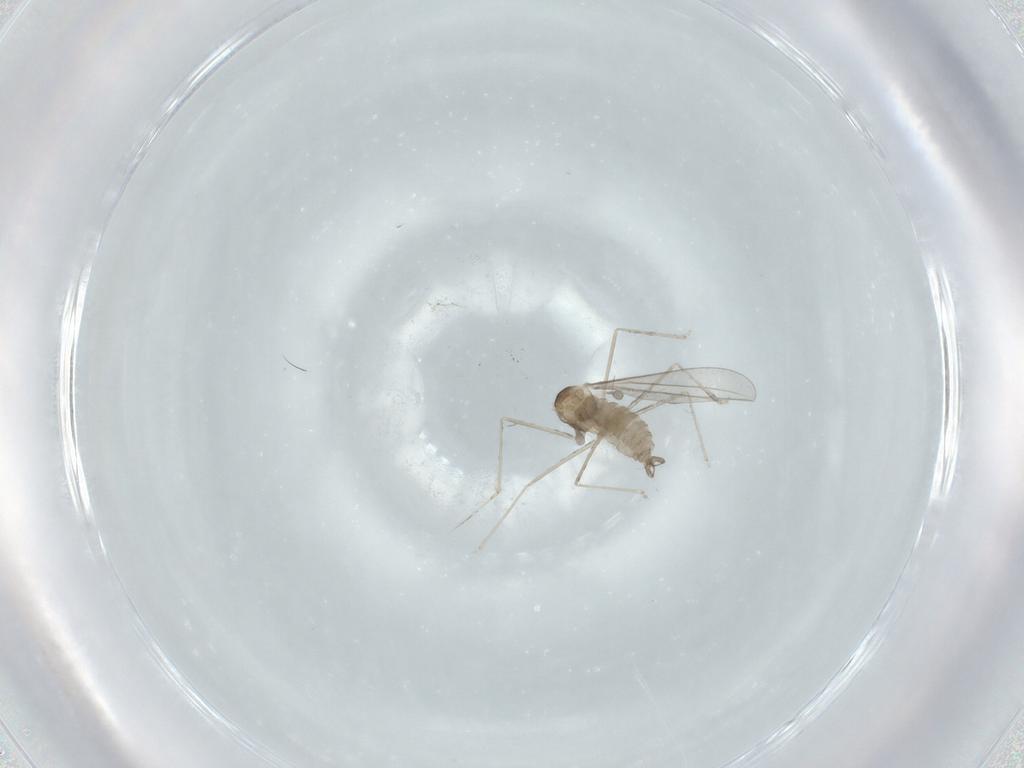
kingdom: Animalia
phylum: Arthropoda
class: Insecta
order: Diptera
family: Cecidomyiidae
